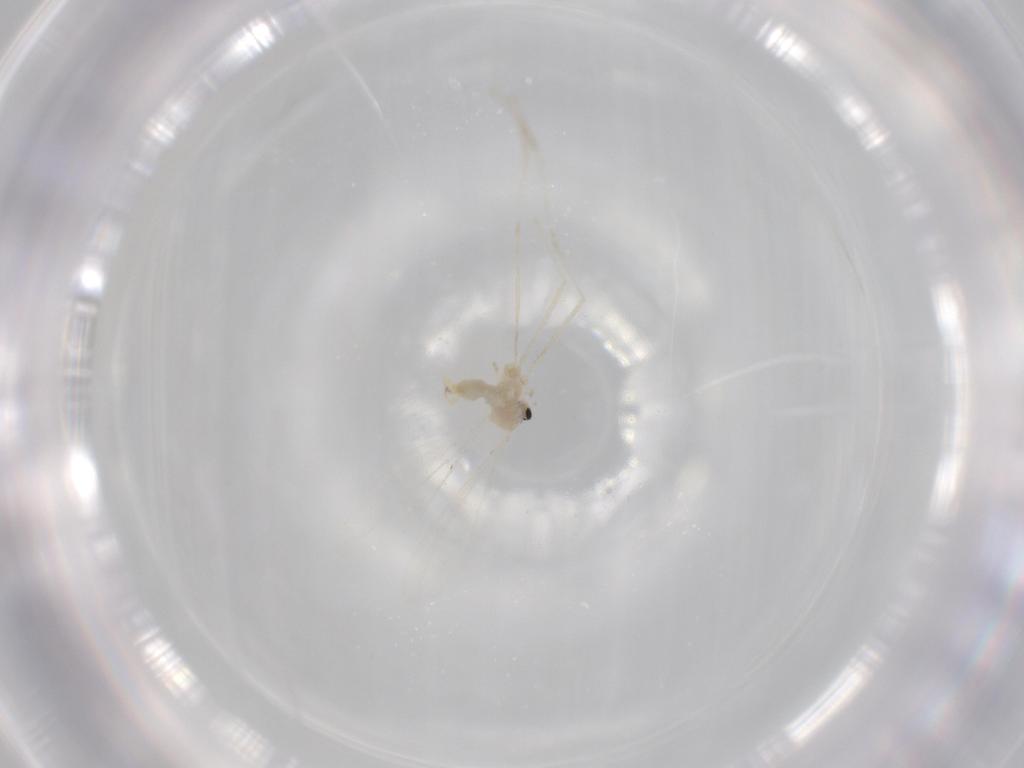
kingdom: Animalia
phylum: Arthropoda
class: Insecta
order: Diptera
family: Cecidomyiidae
